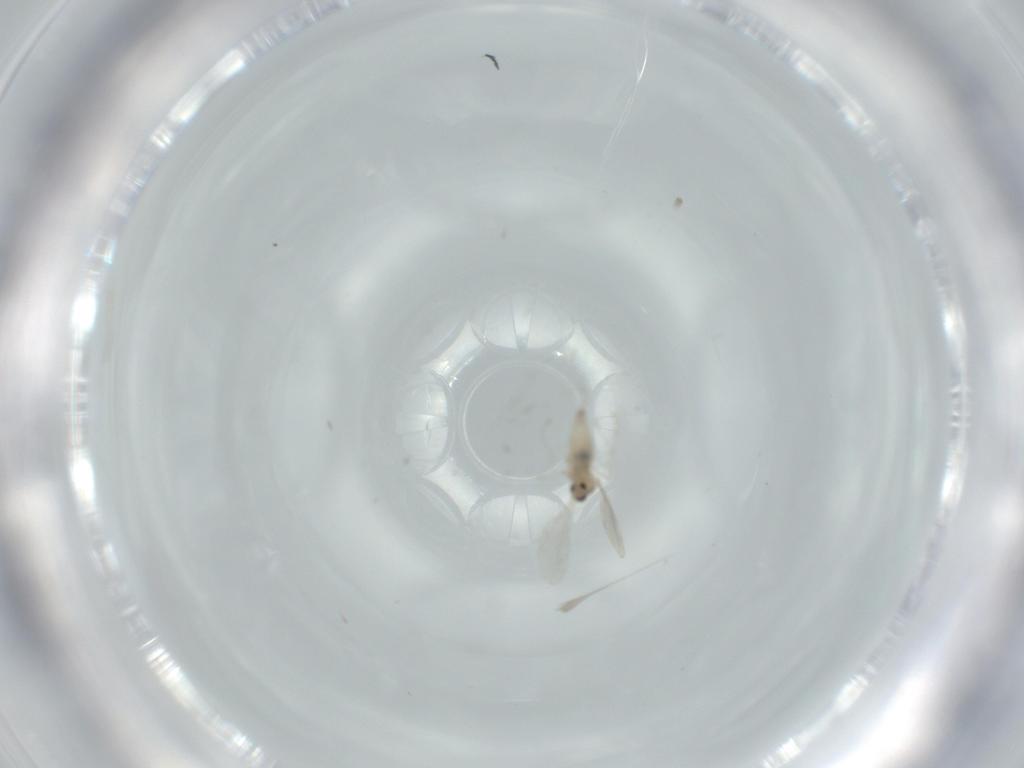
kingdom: Animalia
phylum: Arthropoda
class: Insecta
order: Diptera
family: Cecidomyiidae
